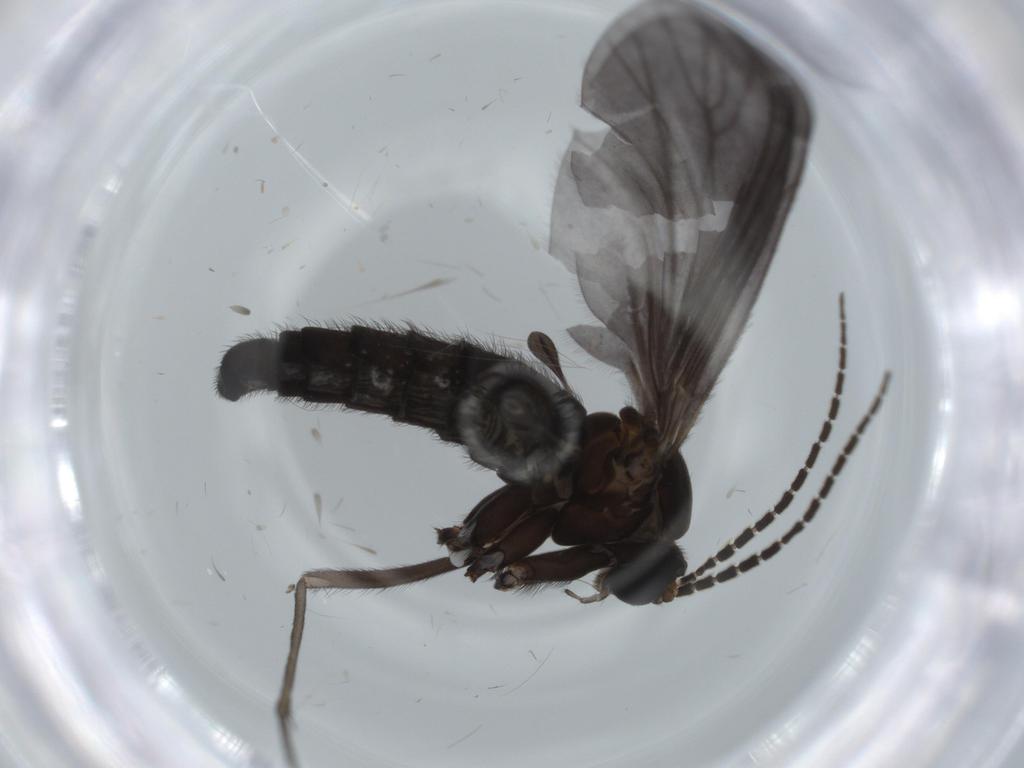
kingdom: Animalia
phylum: Arthropoda
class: Insecta
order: Diptera
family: Sciaridae
